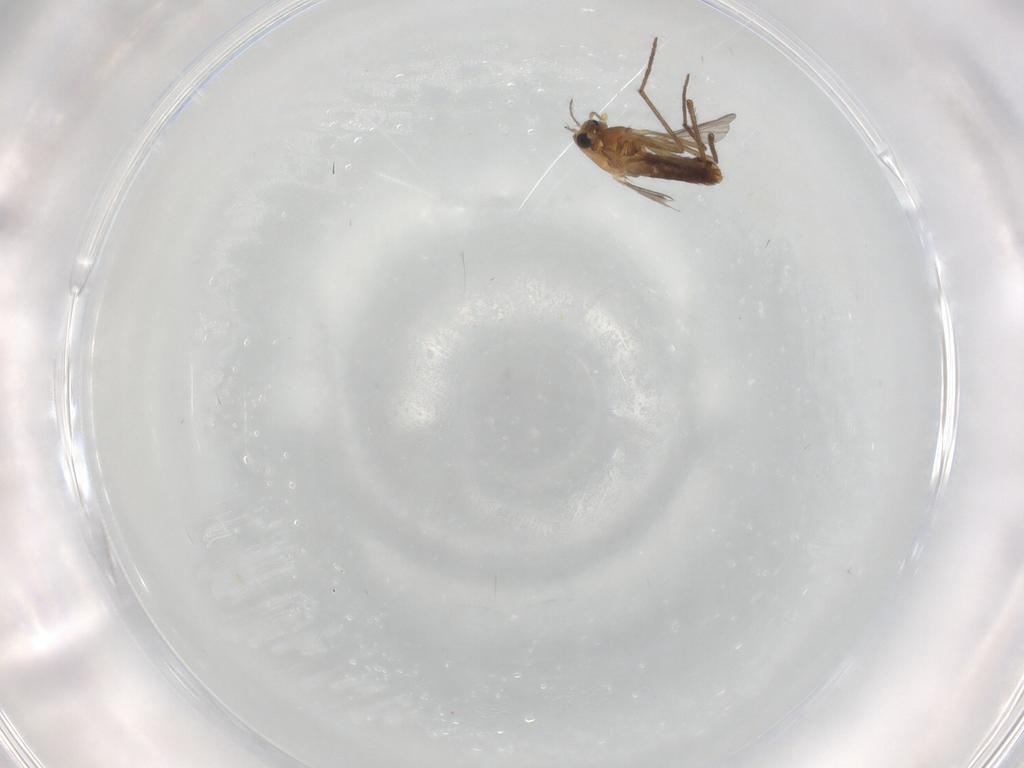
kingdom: Animalia
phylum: Arthropoda
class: Insecta
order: Diptera
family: Chironomidae
